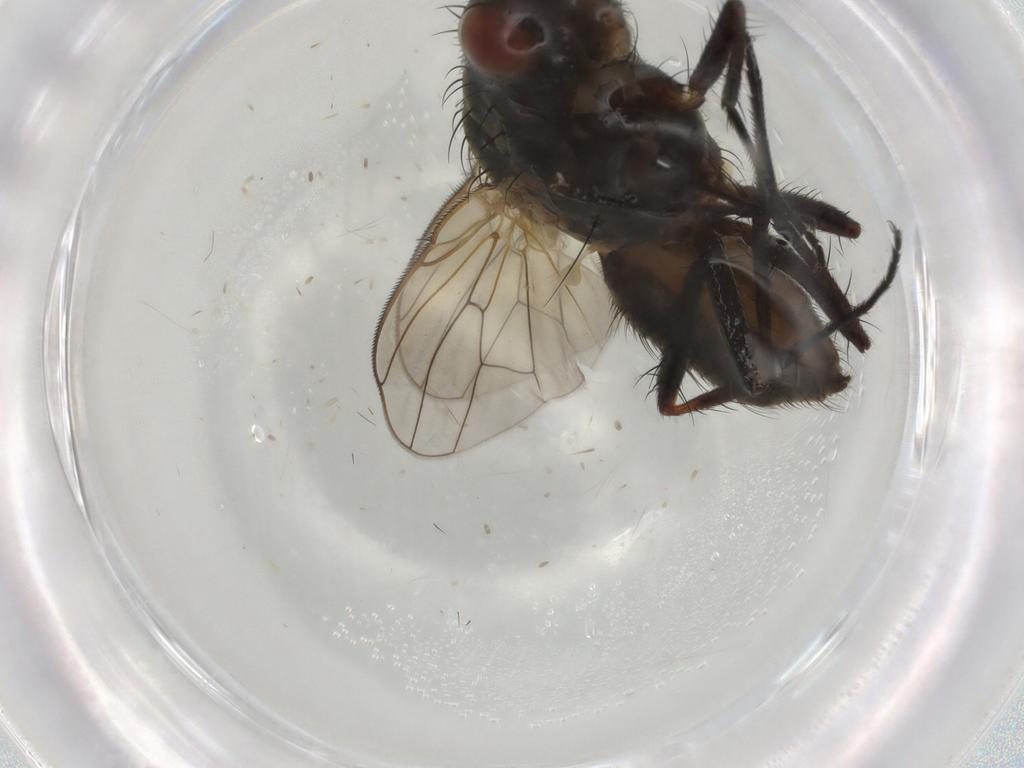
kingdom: Animalia
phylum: Arthropoda
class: Insecta
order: Diptera
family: Anthomyiidae
